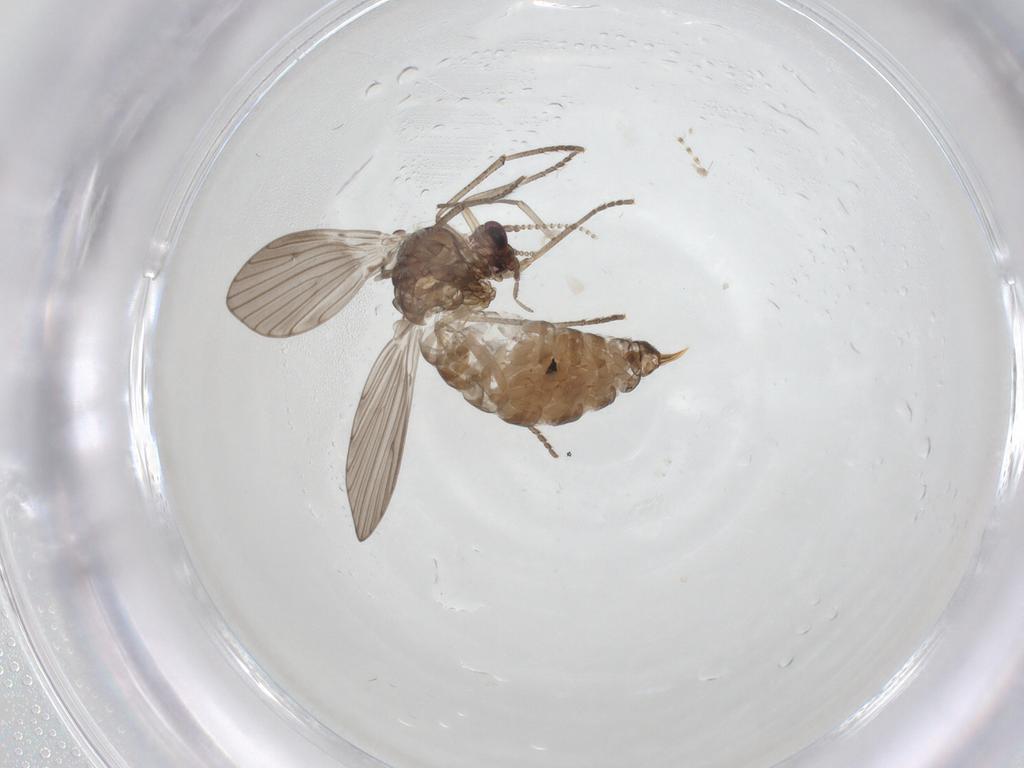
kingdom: Animalia
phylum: Arthropoda
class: Insecta
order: Diptera
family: Psychodidae
